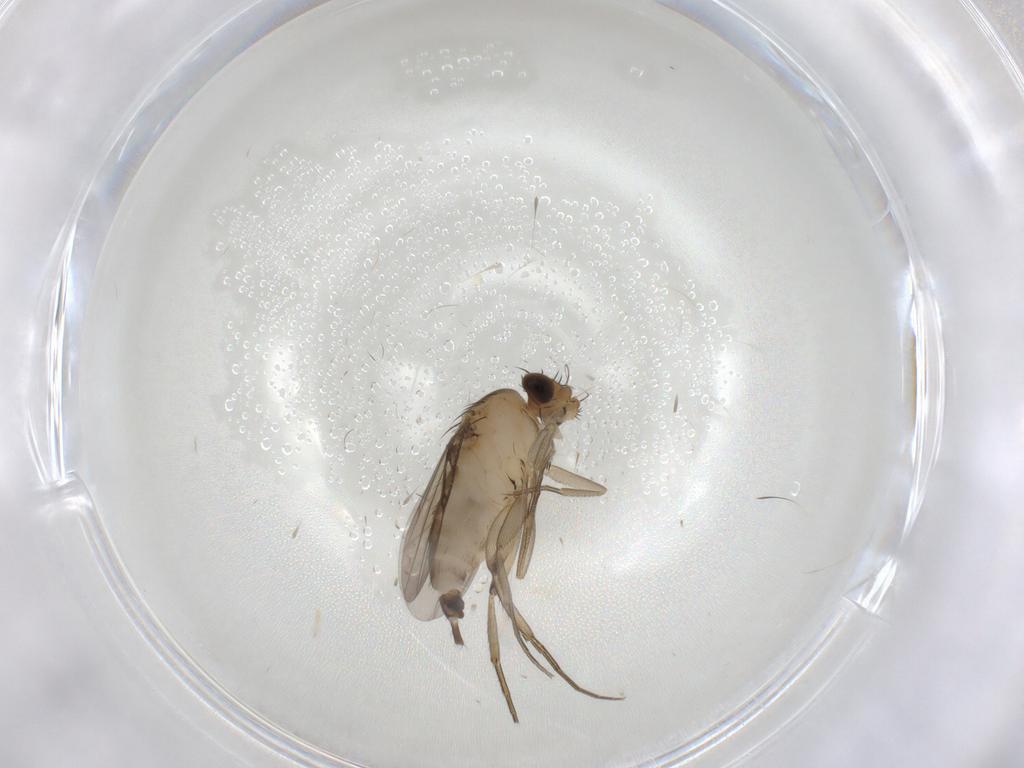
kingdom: Animalia
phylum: Arthropoda
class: Insecta
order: Diptera
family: Phoridae
